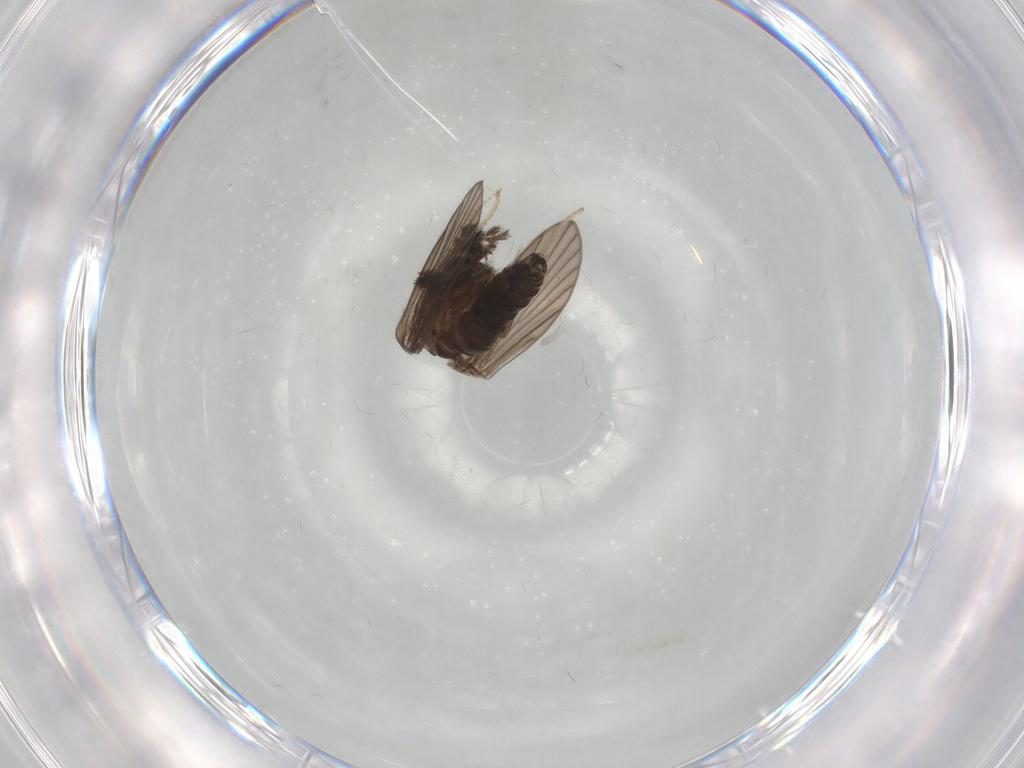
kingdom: Animalia
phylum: Arthropoda
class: Insecta
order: Diptera
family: Psychodidae
